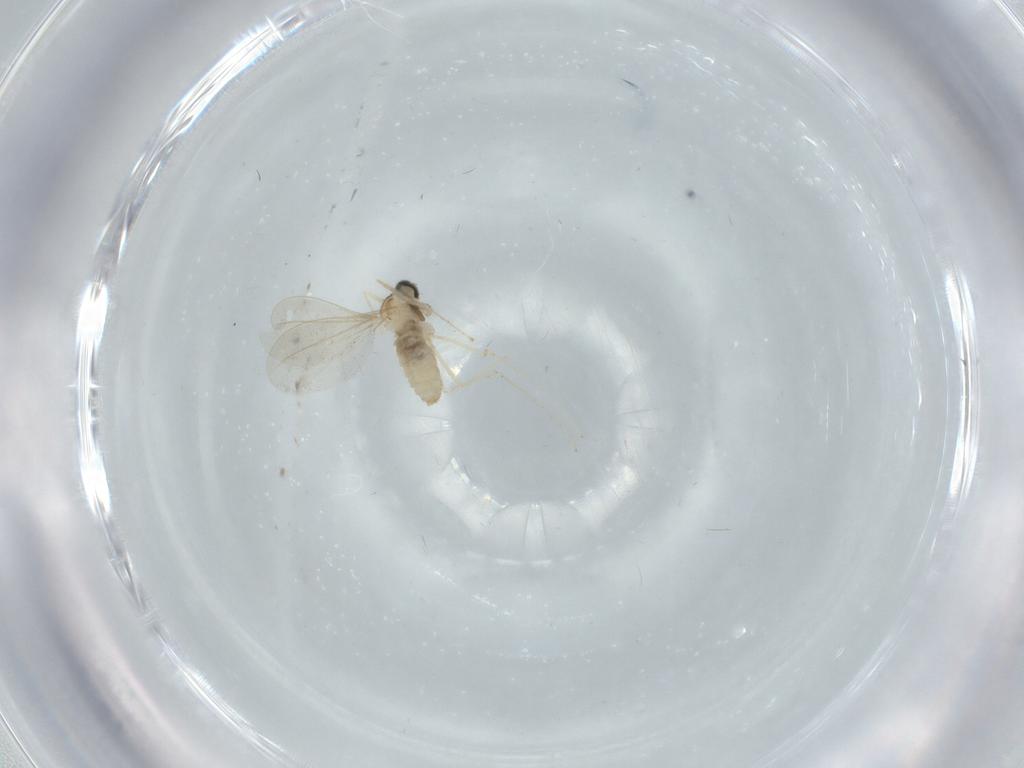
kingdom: Animalia
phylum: Arthropoda
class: Insecta
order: Diptera
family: Cecidomyiidae
